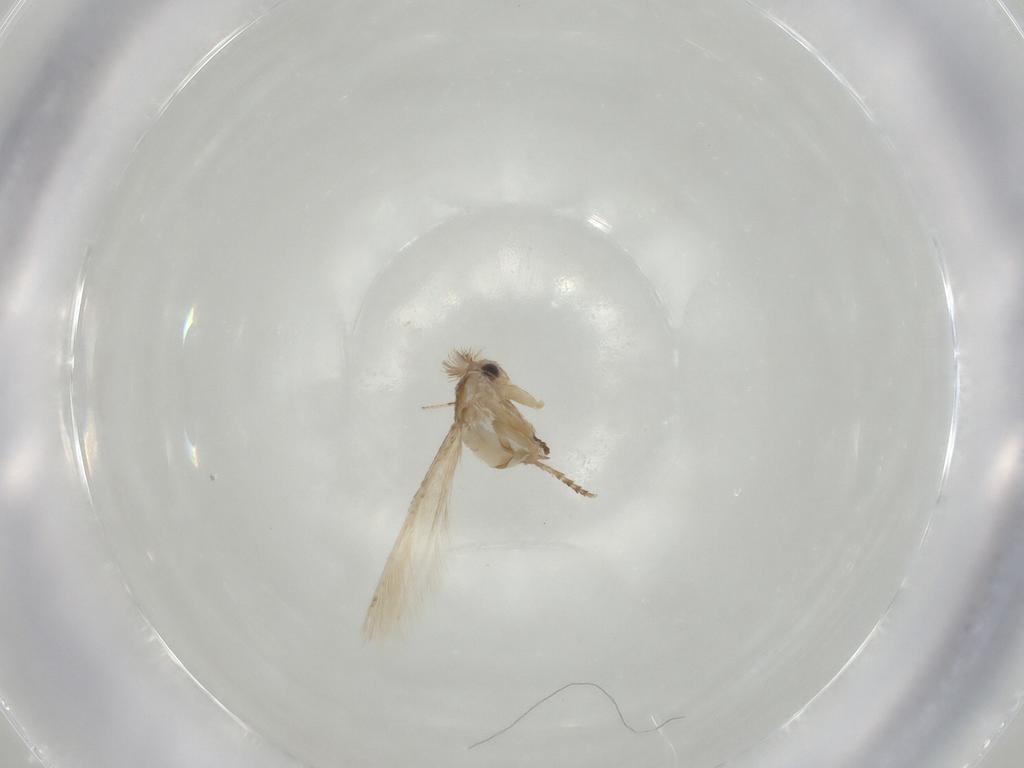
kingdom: Animalia
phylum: Arthropoda
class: Insecta
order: Lepidoptera
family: Bucculatricidae
